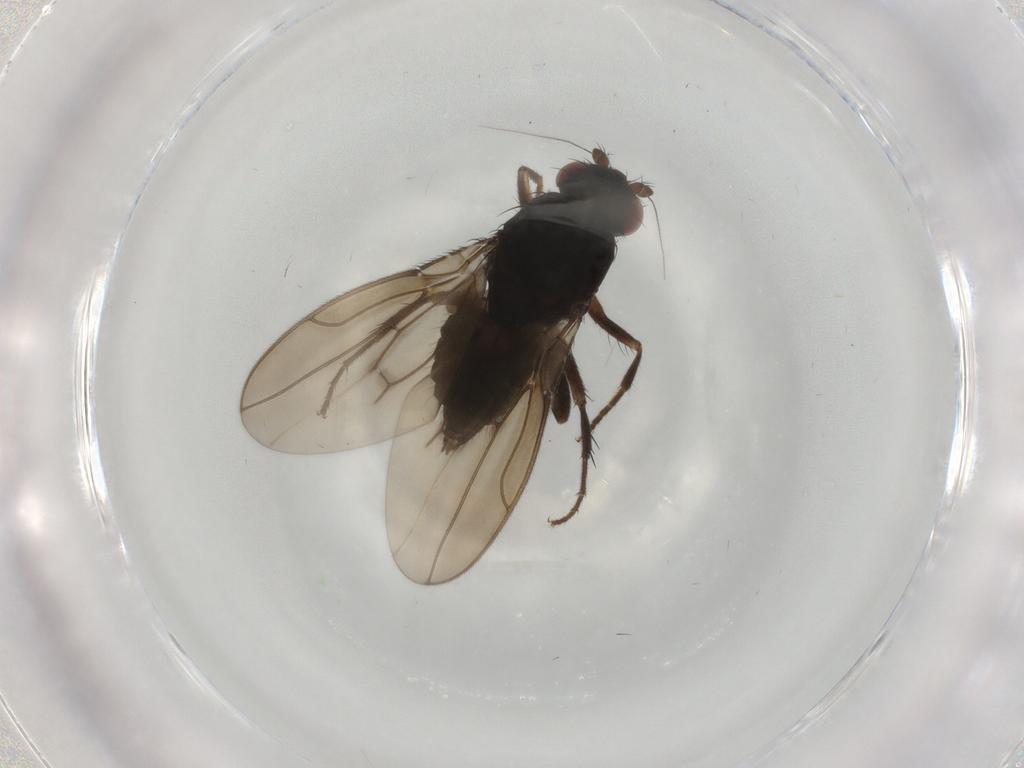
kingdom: Animalia
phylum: Arthropoda
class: Insecta
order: Diptera
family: Sphaeroceridae
